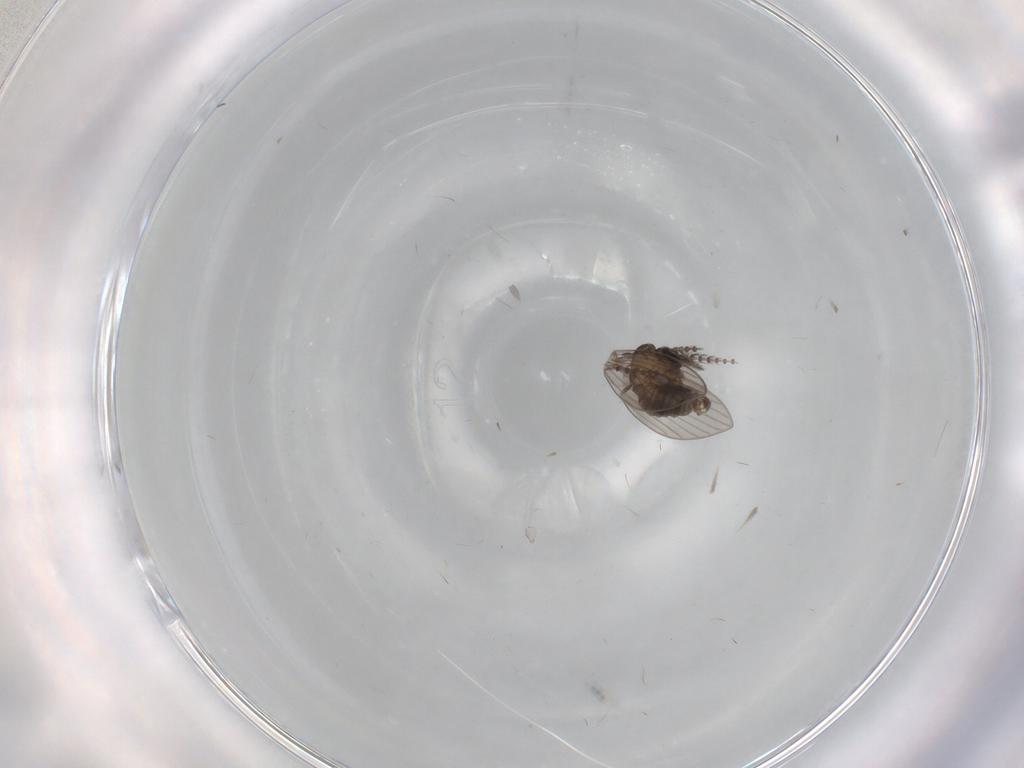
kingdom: Animalia
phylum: Arthropoda
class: Insecta
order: Diptera
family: Psychodidae
